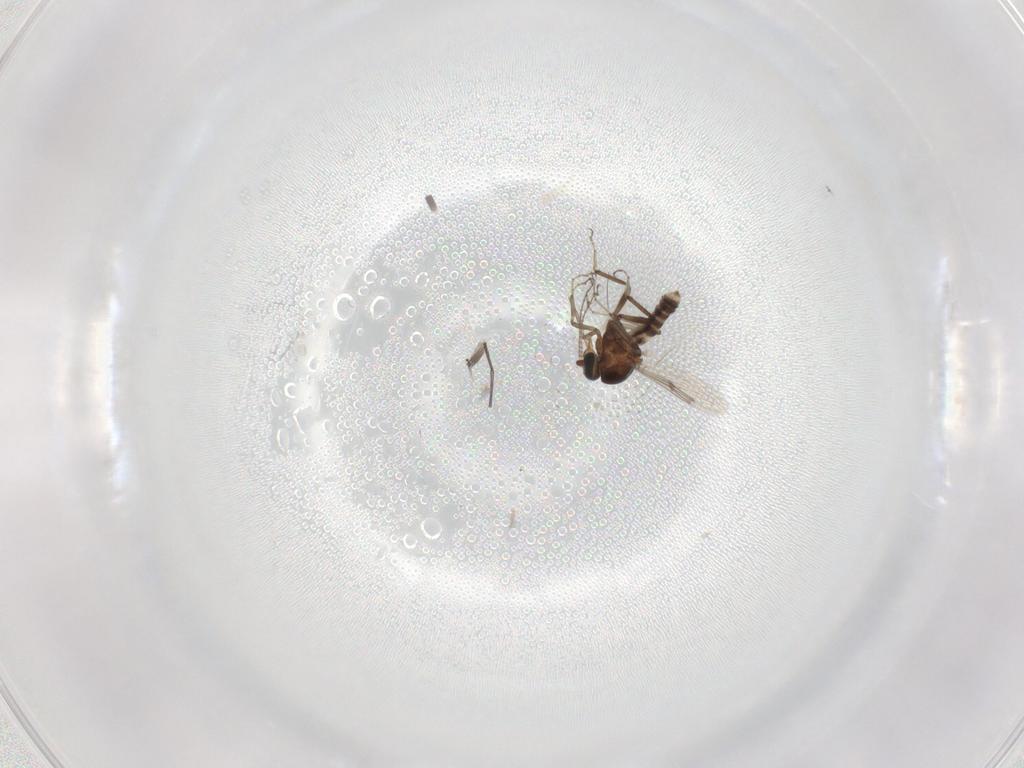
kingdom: Animalia
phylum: Arthropoda
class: Insecta
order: Diptera
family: Ceratopogonidae
